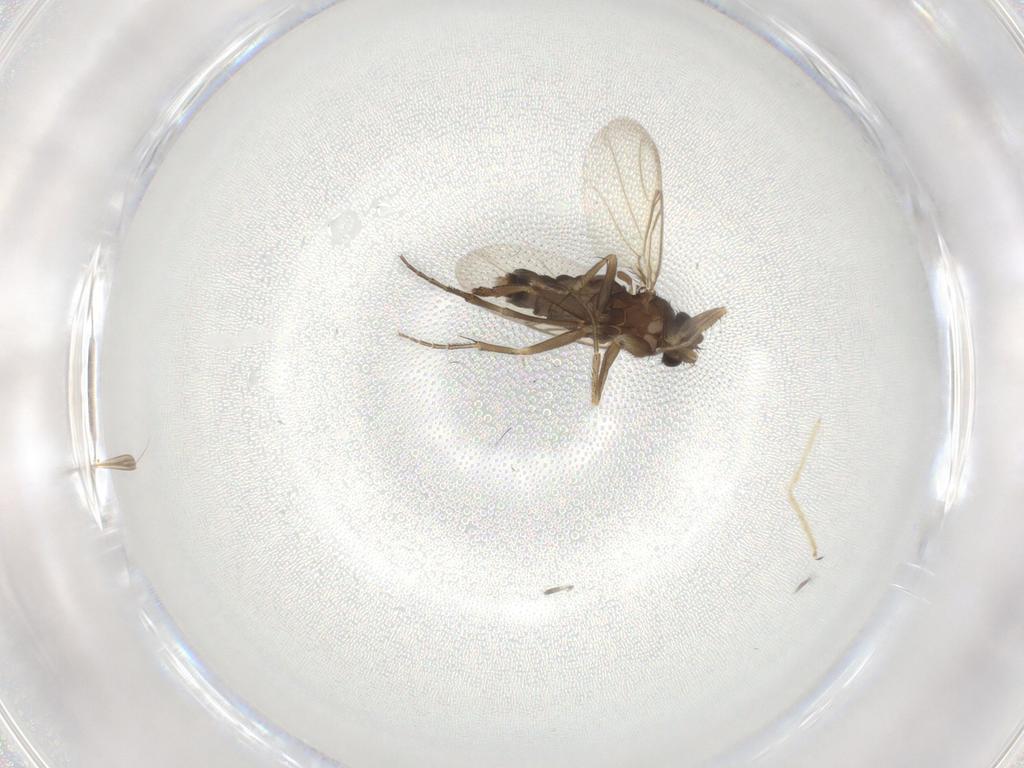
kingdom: Animalia
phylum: Arthropoda
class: Insecta
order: Diptera
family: Phoridae
